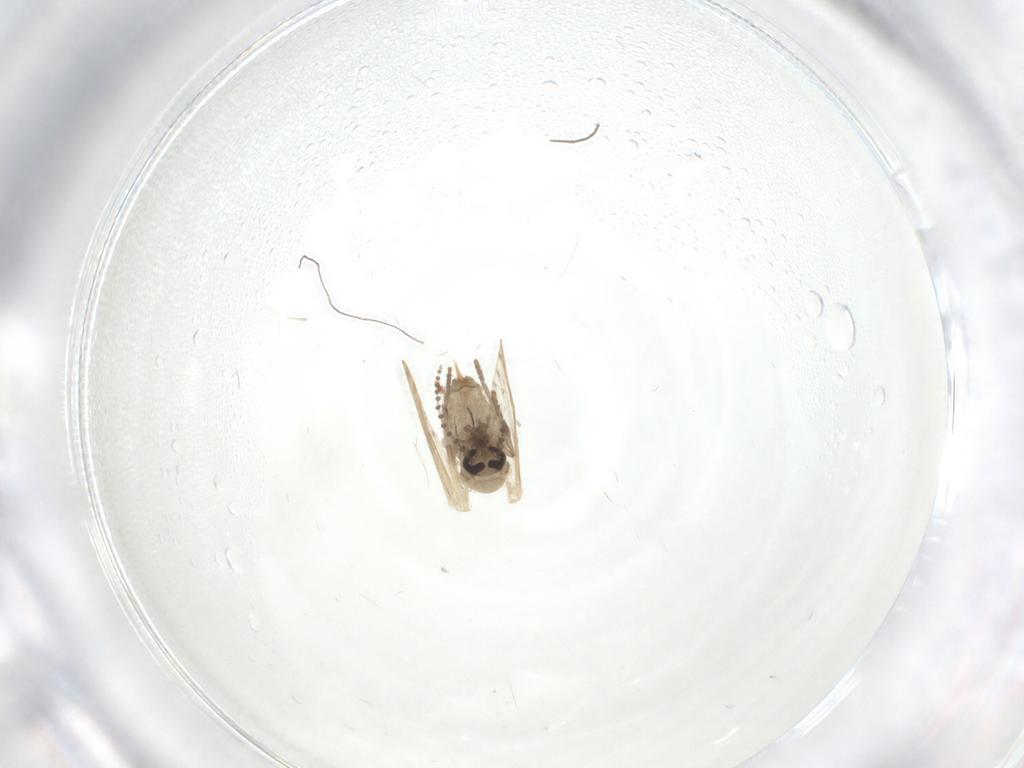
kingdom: Animalia
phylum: Arthropoda
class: Insecta
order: Diptera
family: Psychodidae
